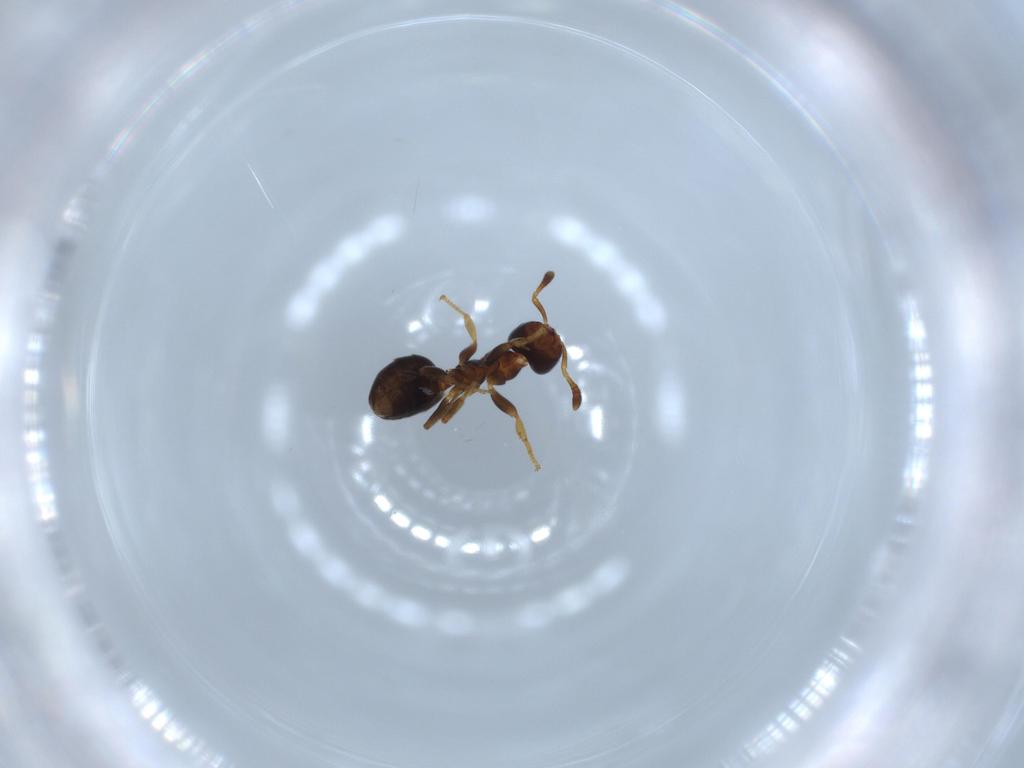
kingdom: Animalia
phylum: Arthropoda
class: Insecta
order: Hymenoptera
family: Formicidae
